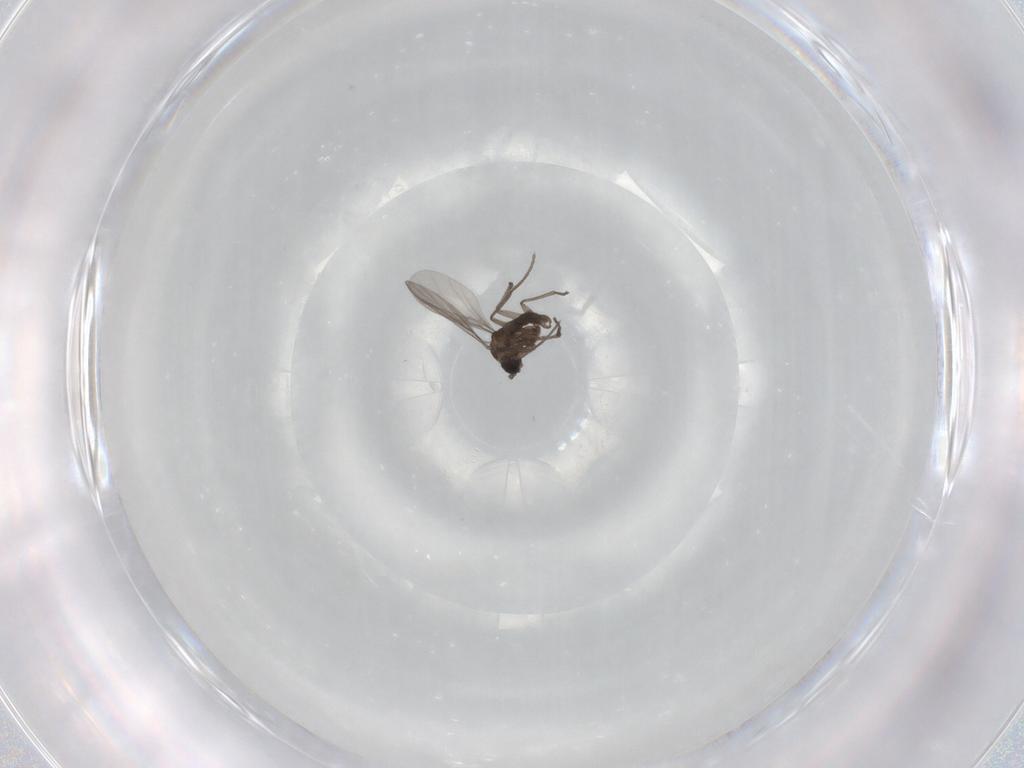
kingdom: Animalia
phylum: Arthropoda
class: Insecta
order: Diptera
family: Sciaridae
